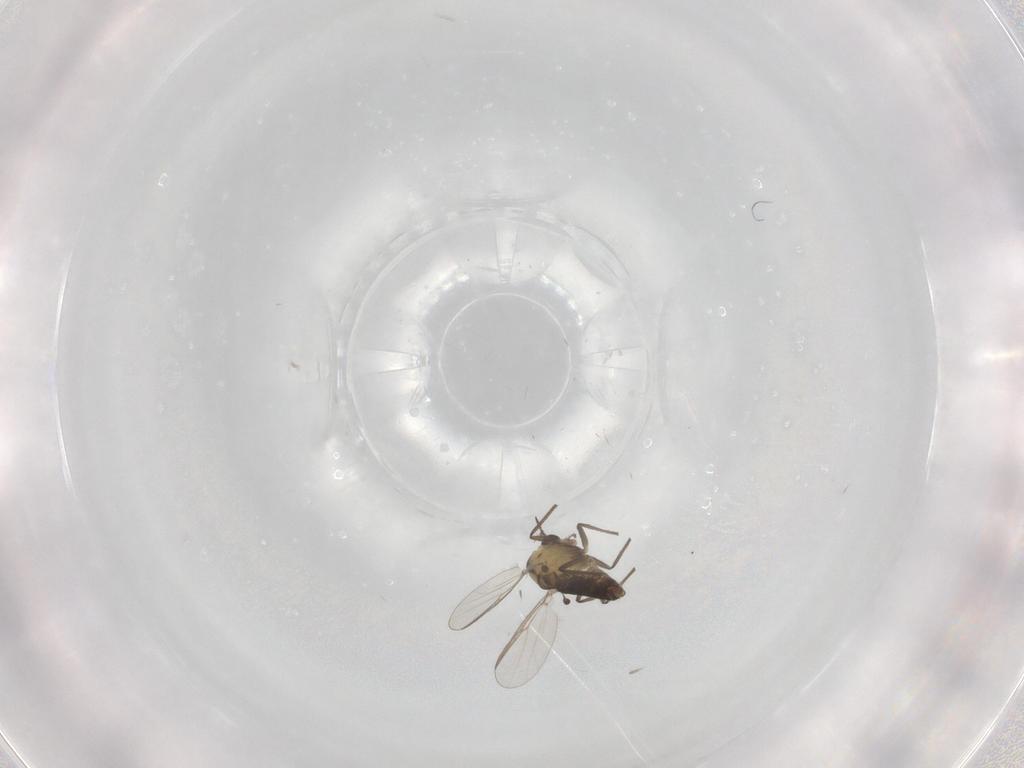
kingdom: Animalia
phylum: Arthropoda
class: Insecta
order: Diptera
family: Chironomidae
